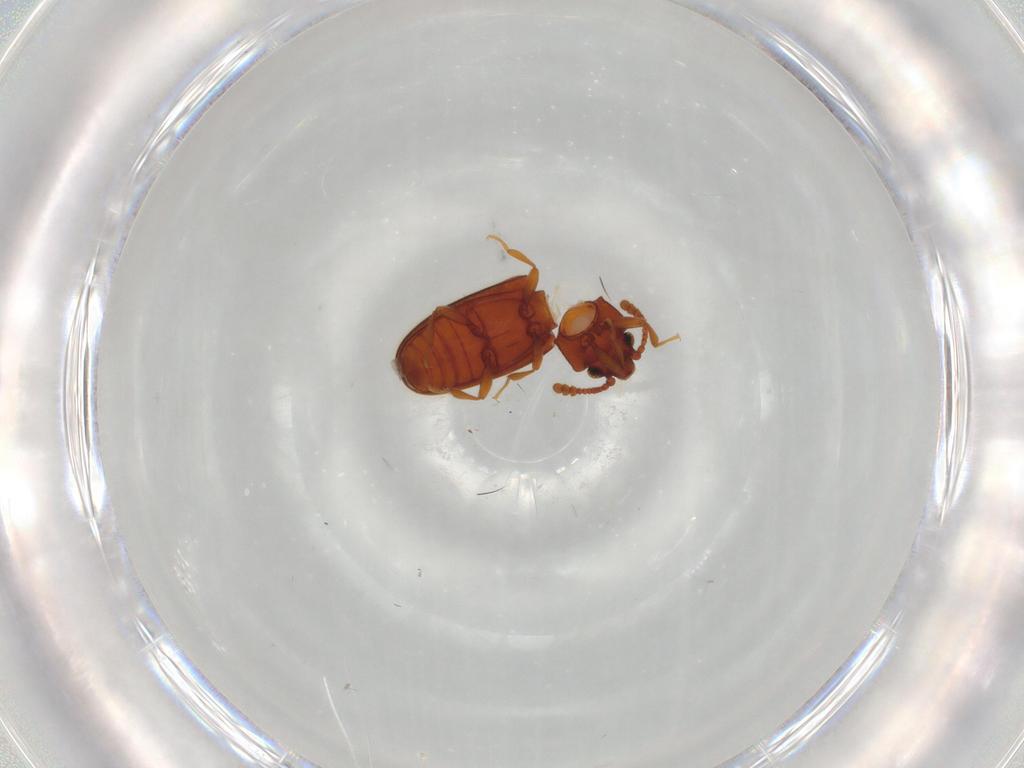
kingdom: Animalia
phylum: Arthropoda
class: Insecta
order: Coleoptera
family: Erotylidae
